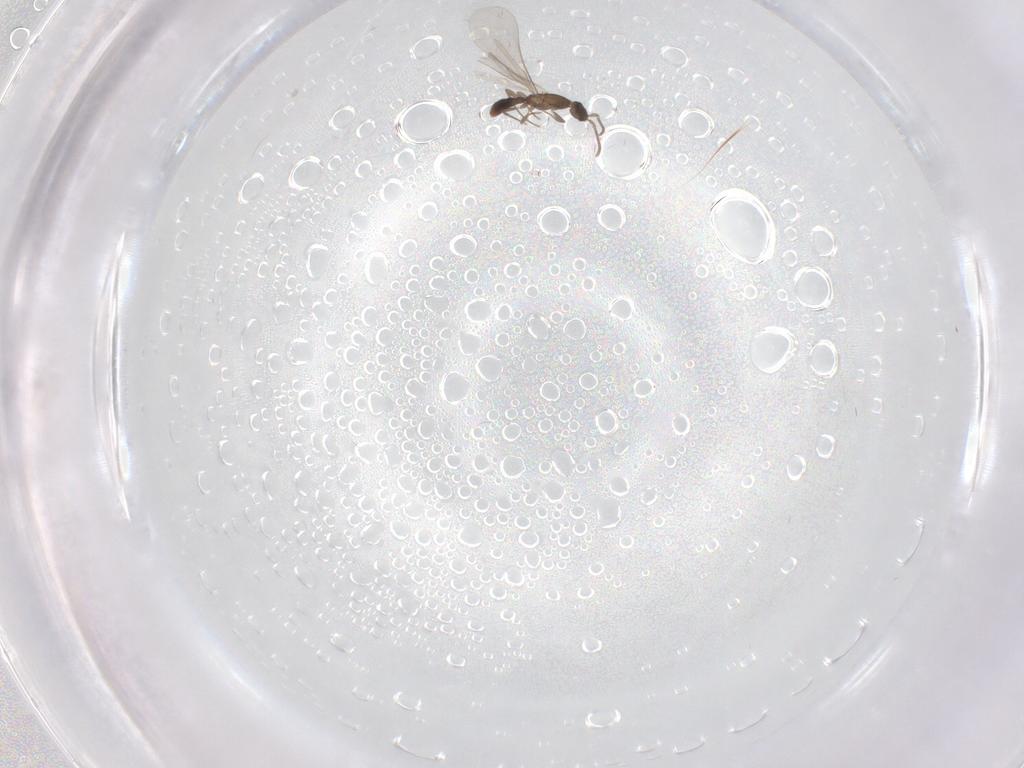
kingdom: Animalia
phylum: Arthropoda
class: Insecta
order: Hymenoptera
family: Formicidae
